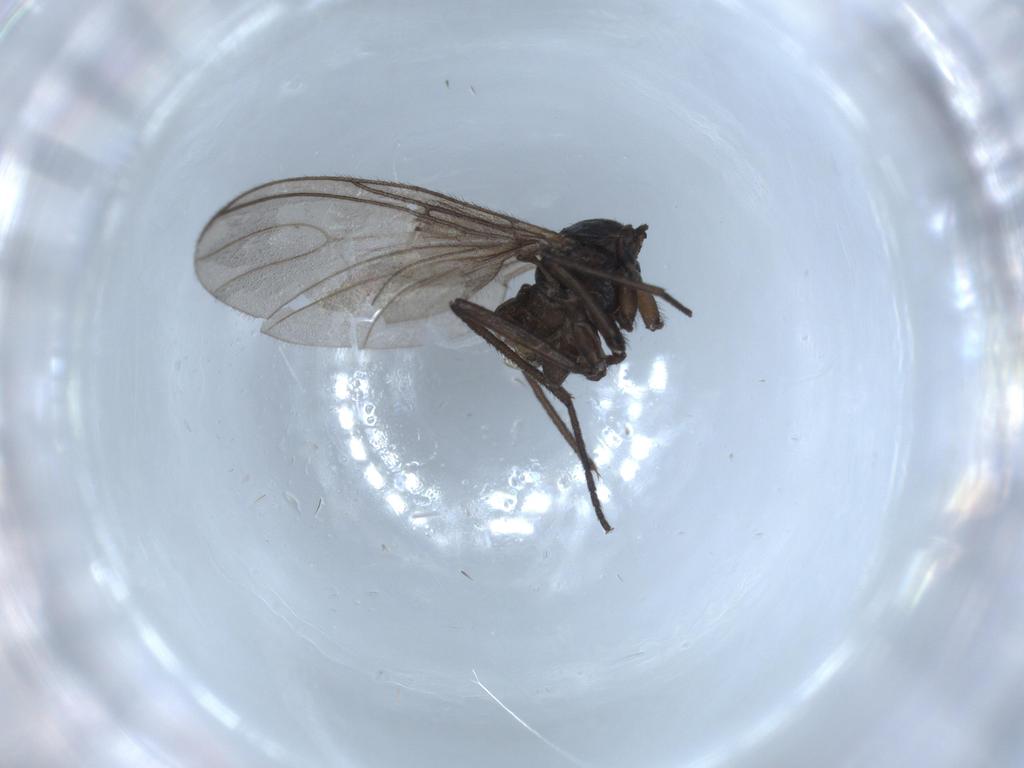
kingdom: Animalia
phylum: Arthropoda
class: Insecta
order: Diptera
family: Sciaridae
